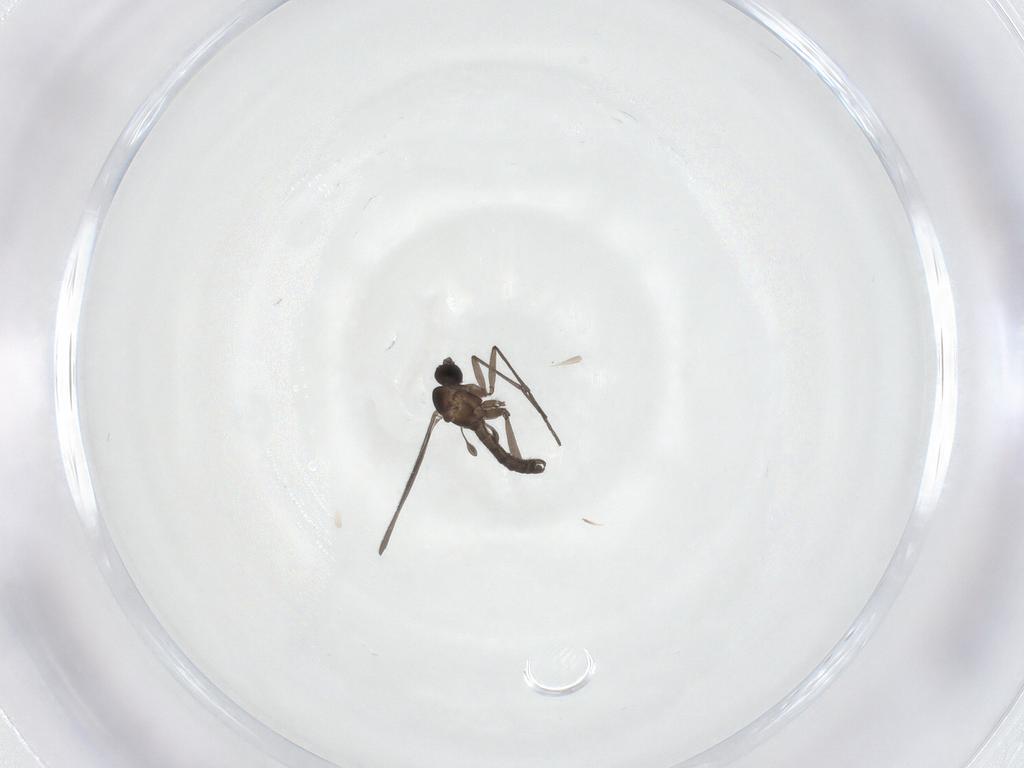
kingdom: Animalia
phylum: Arthropoda
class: Insecta
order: Diptera
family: Sciaridae
